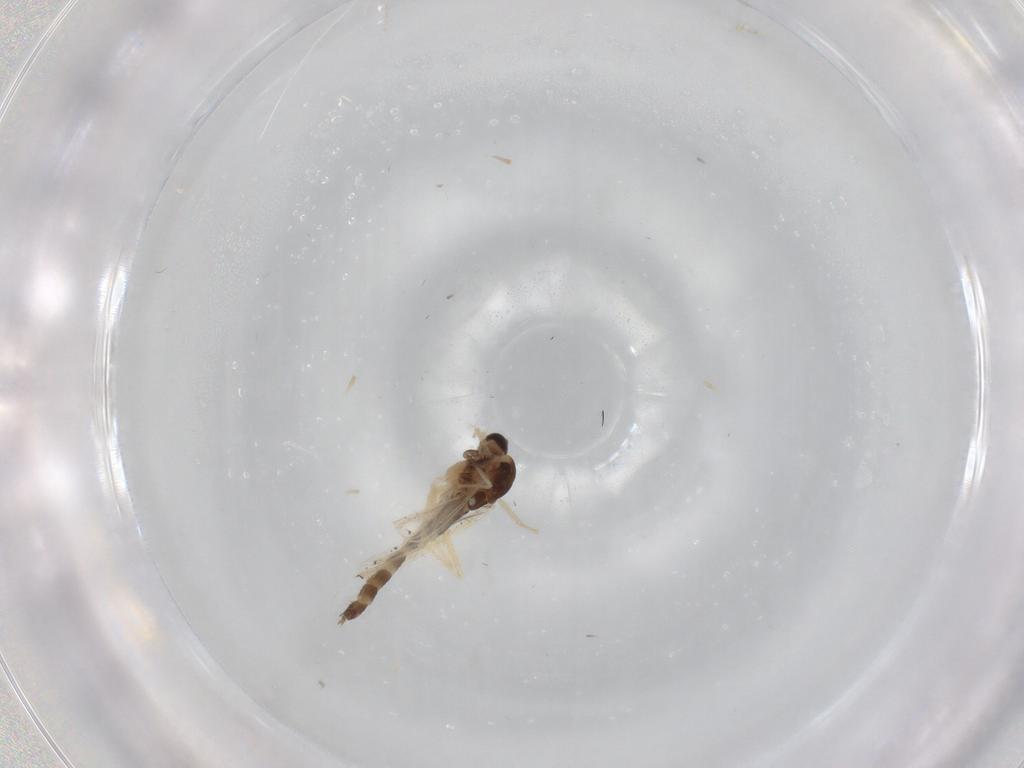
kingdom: Animalia
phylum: Arthropoda
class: Insecta
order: Diptera
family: Chironomidae
